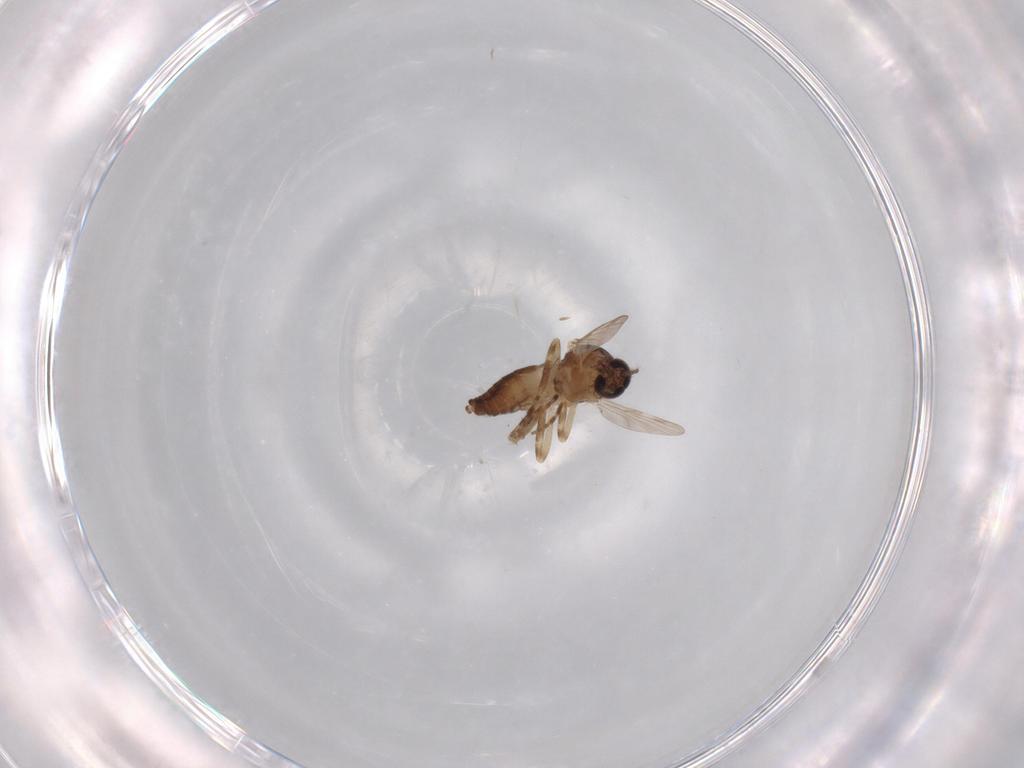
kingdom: Animalia
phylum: Arthropoda
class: Insecta
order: Diptera
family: Ceratopogonidae
